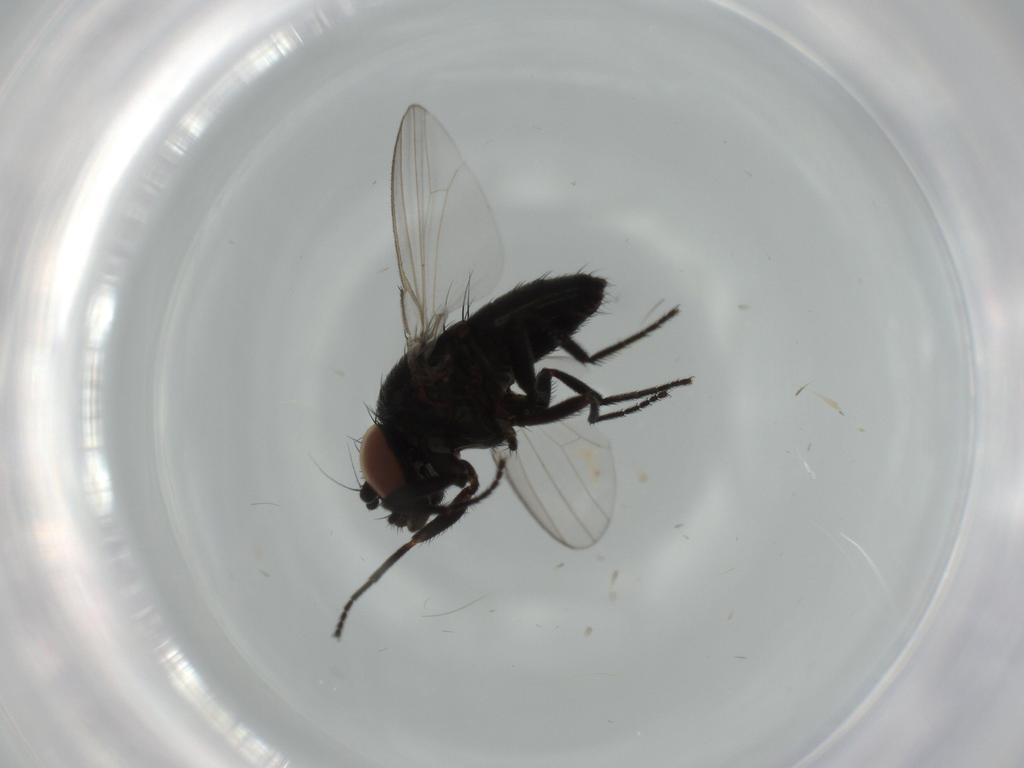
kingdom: Animalia
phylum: Arthropoda
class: Insecta
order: Diptera
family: Milichiidae
